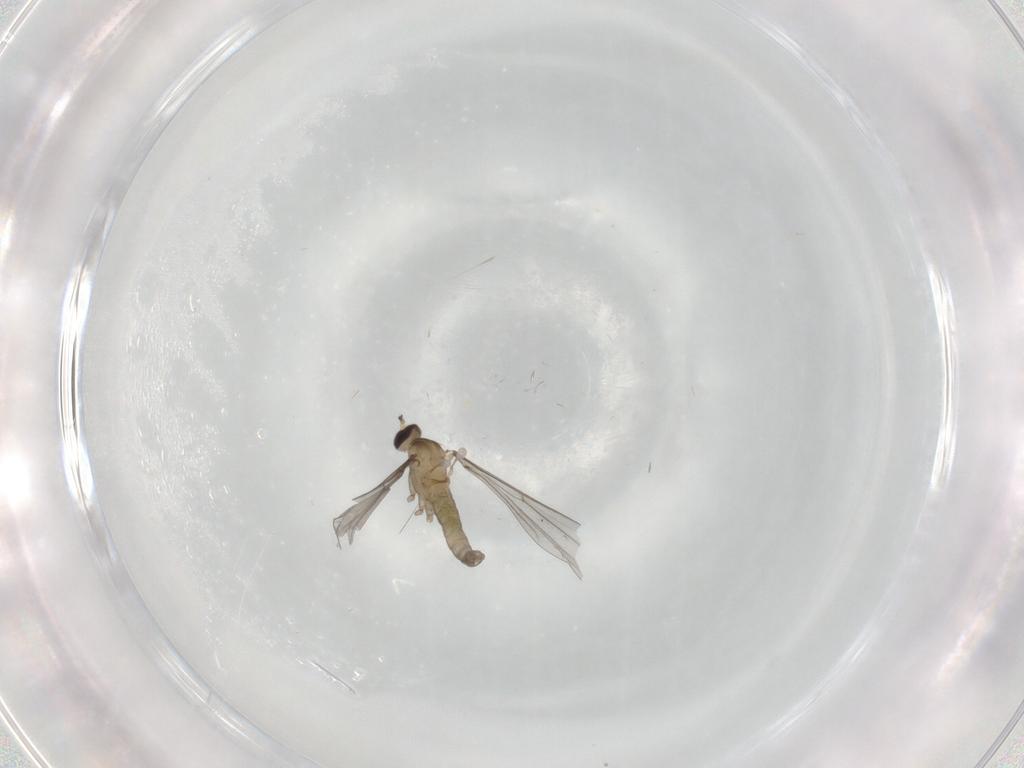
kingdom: Animalia
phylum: Arthropoda
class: Insecta
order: Diptera
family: Cecidomyiidae
